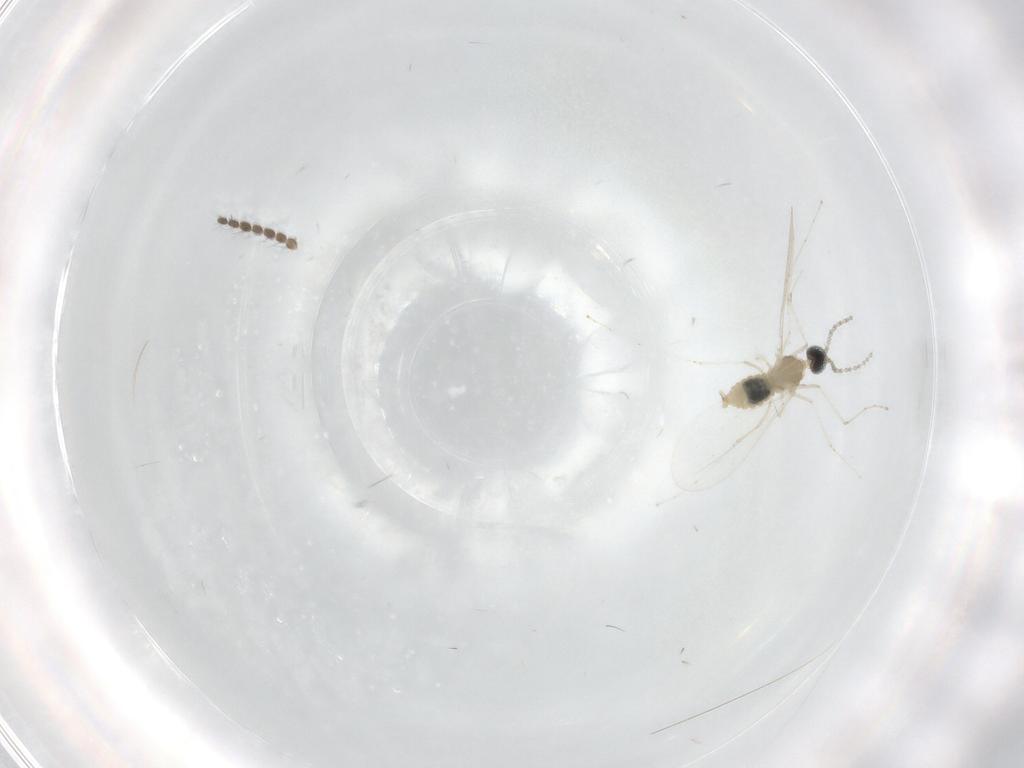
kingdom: Animalia
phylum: Arthropoda
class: Insecta
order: Diptera
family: Cecidomyiidae
